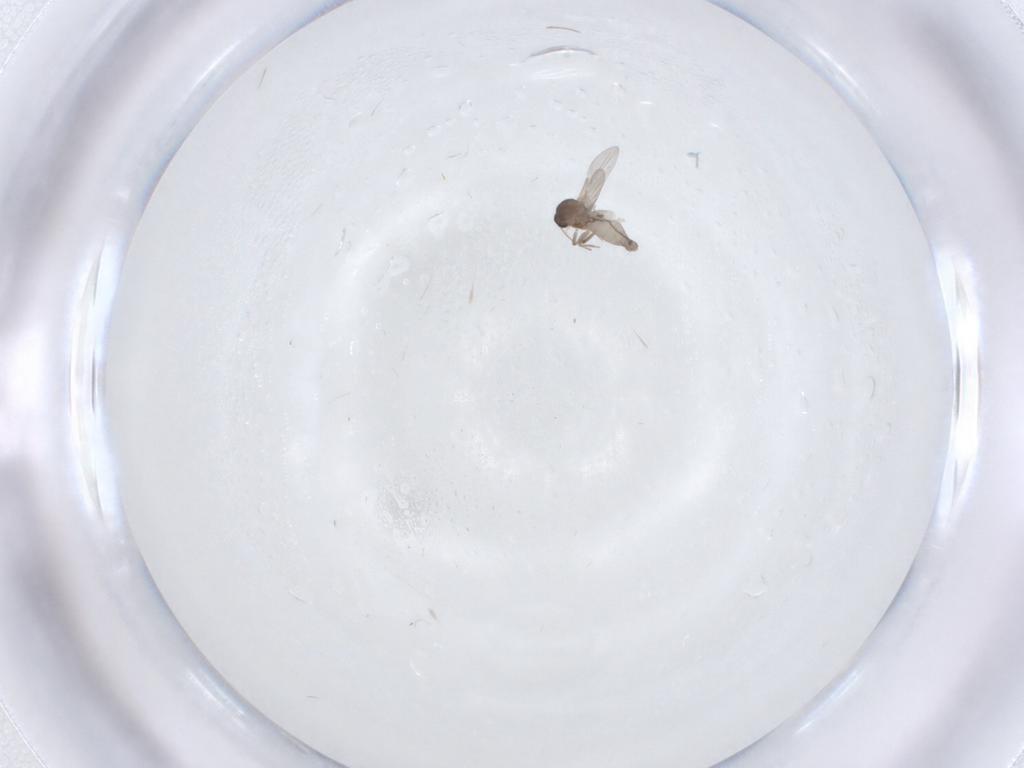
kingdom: Animalia
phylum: Arthropoda
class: Insecta
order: Diptera
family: Ceratopogonidae
